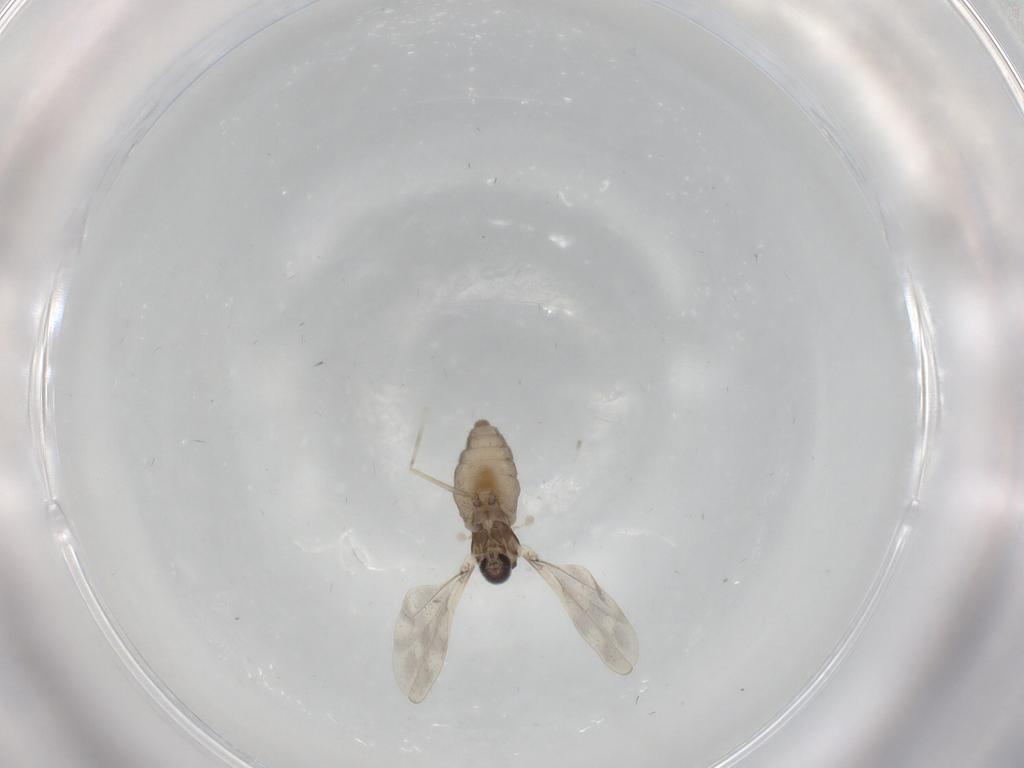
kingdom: Animalia
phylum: Arthropoda
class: Insecta
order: Diptera
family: Cecidomyiidae
